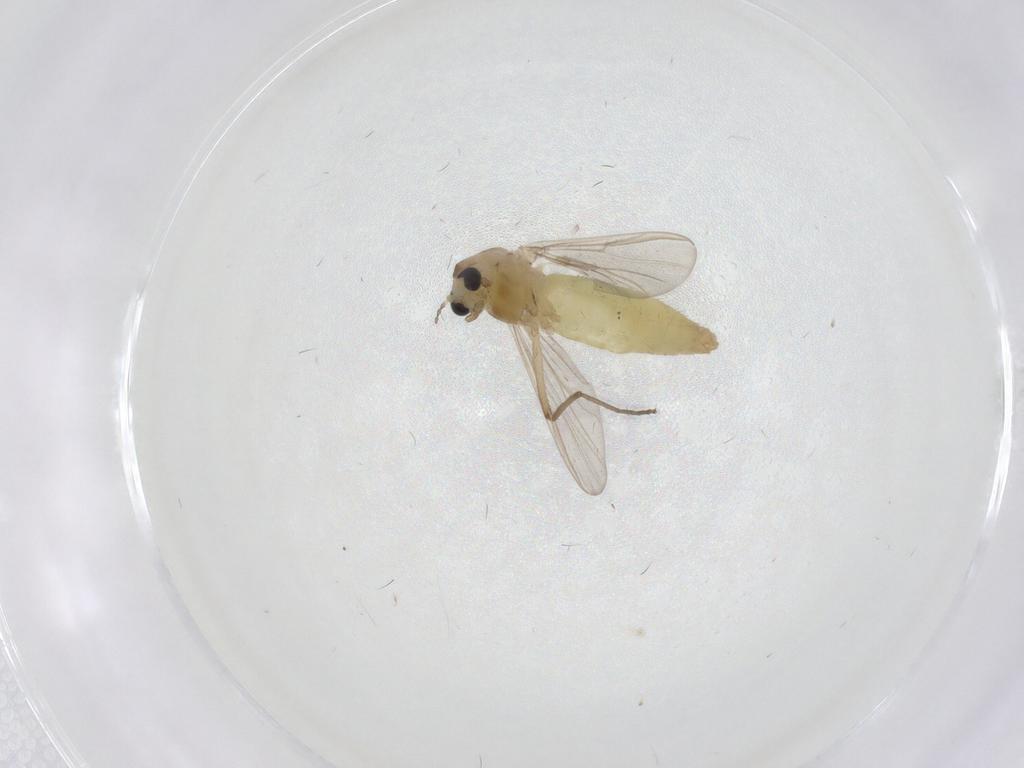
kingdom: Animalia
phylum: Arthropoda
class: Insecta
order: Diptera
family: Chironomidae
